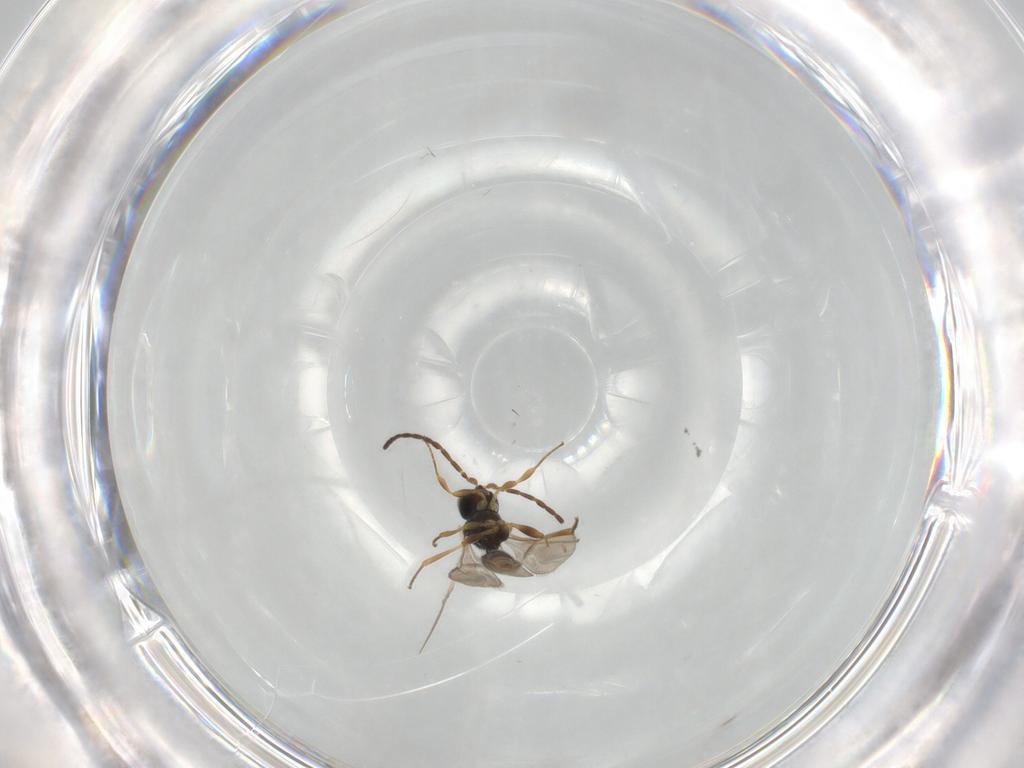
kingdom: Animalia
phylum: Arthropoda
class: Insecta
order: Hymenoptera
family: Scelionidae
